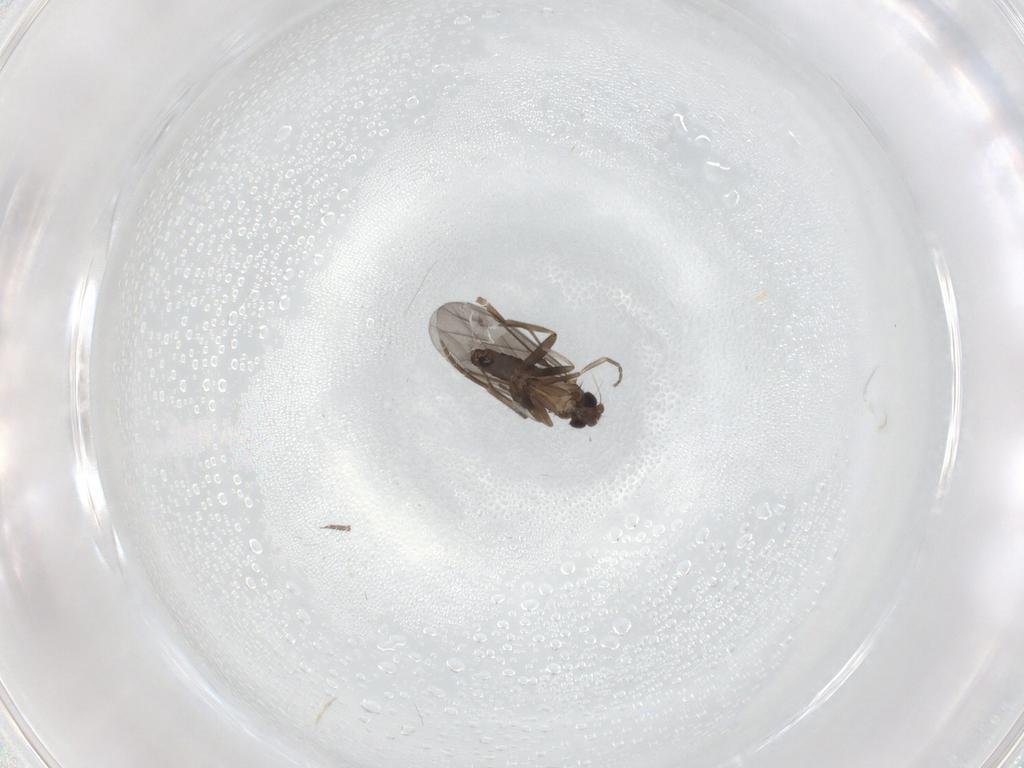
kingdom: Animalia
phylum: Arthropoda
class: Insecta
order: Diptera
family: Phoridae
